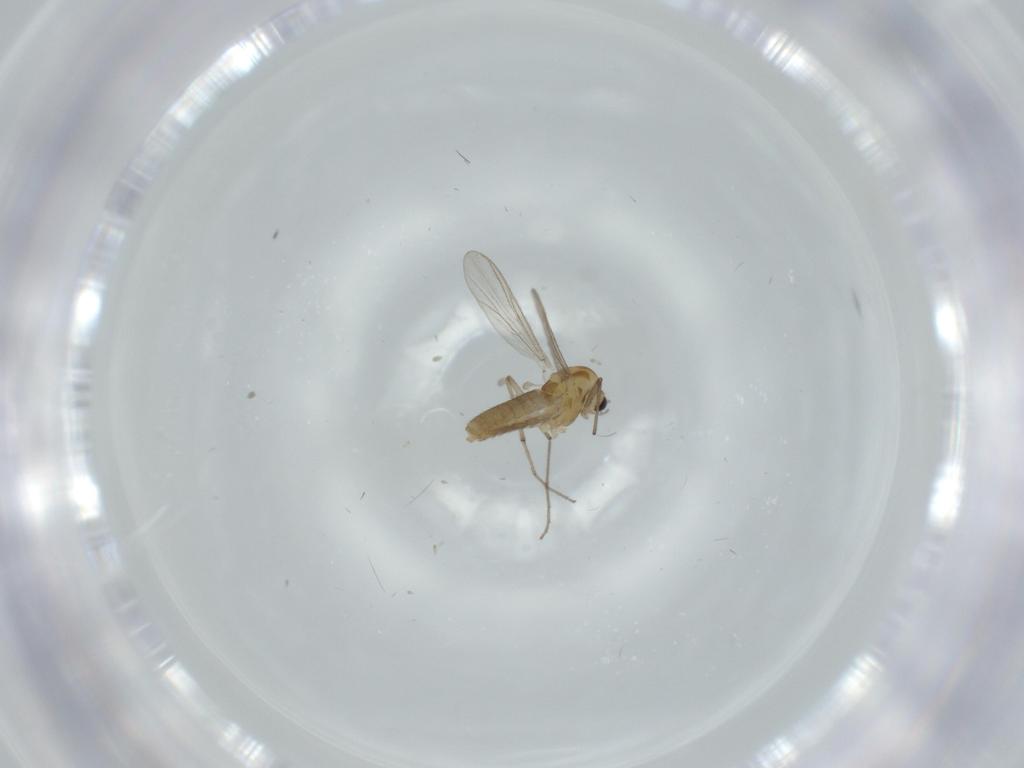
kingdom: Animalia
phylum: Arthropoda
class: Insecta
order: Diptera
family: Chironomidae
